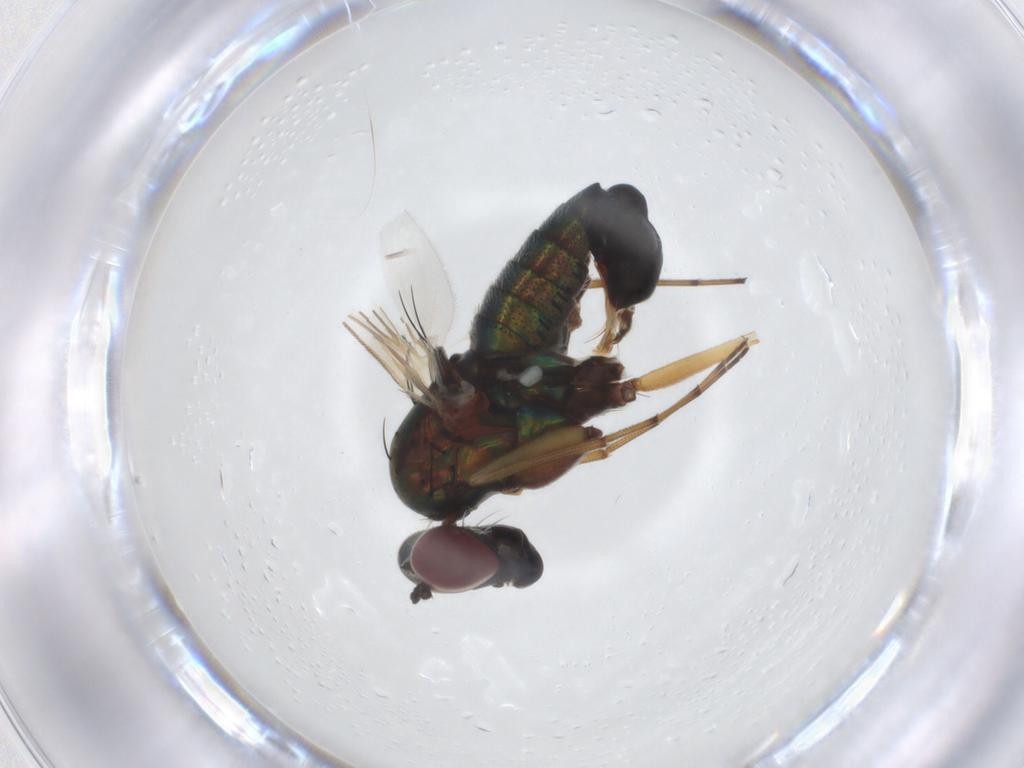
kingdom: Animalia
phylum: Arthropoda
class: Insecta
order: Diptera
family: Dolichopodidae
